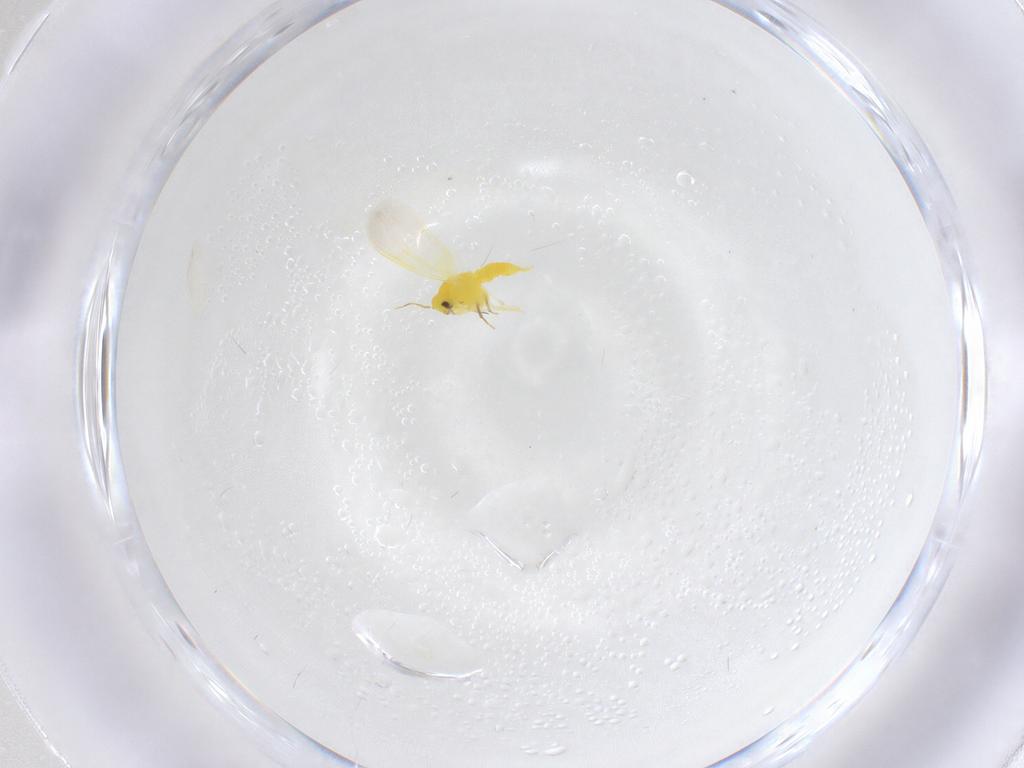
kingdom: Animalia
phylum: Arthropoda
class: Insecta
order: Hemiptera
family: Aleyrodidae
